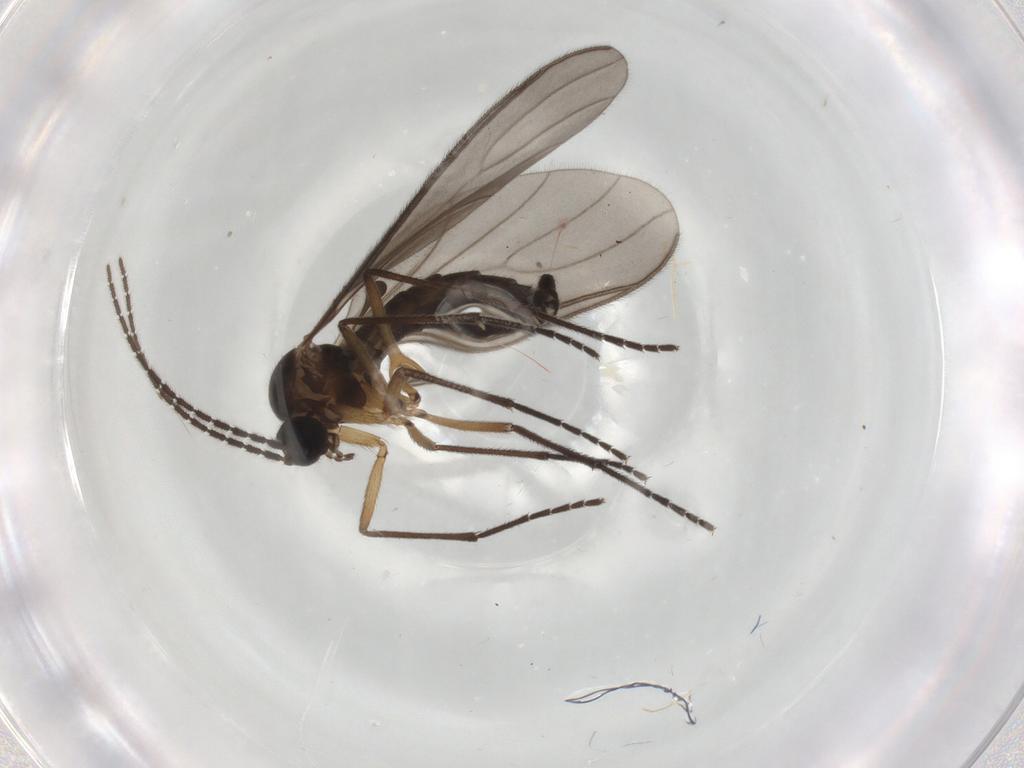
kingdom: Animalia
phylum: Arthropoda
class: Insecta
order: Diptera
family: Sciaridae
